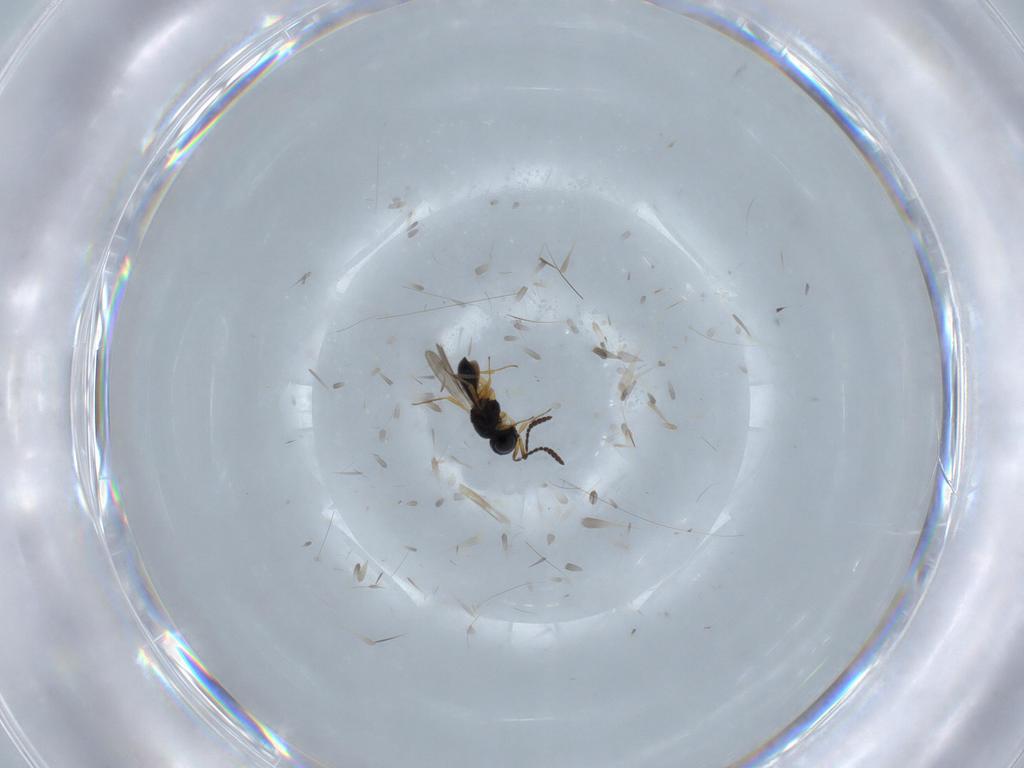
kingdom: Animalia
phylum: Arthropoda
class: Insecta
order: Hymenoptera
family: Scelionidae
